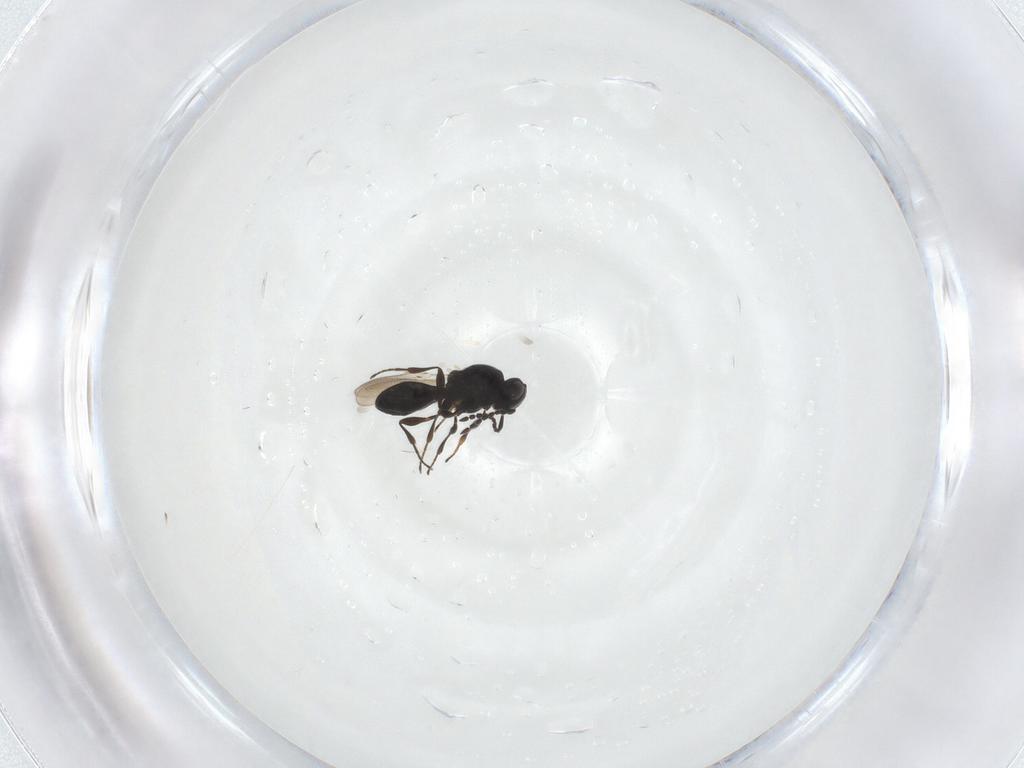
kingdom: Animalia
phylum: Arthropoda
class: Insecta
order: Hymenoptera
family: Platygastridae
